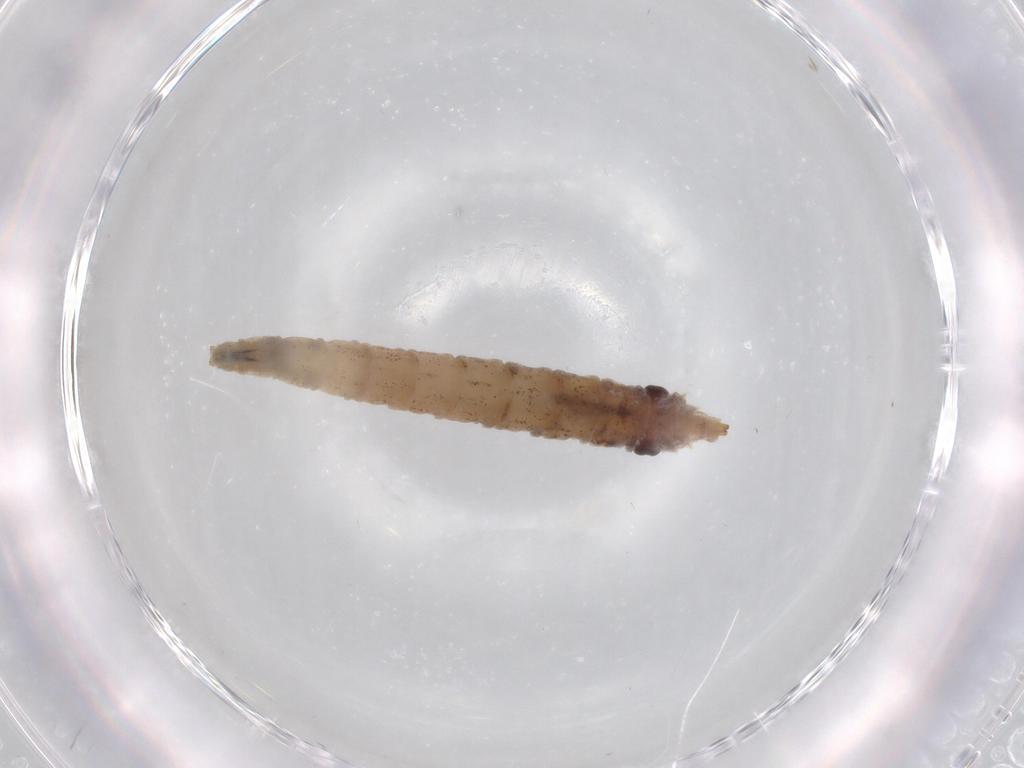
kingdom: Animalia
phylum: Arthropoda
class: Insecta
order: Diptera
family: Drosophilidae
